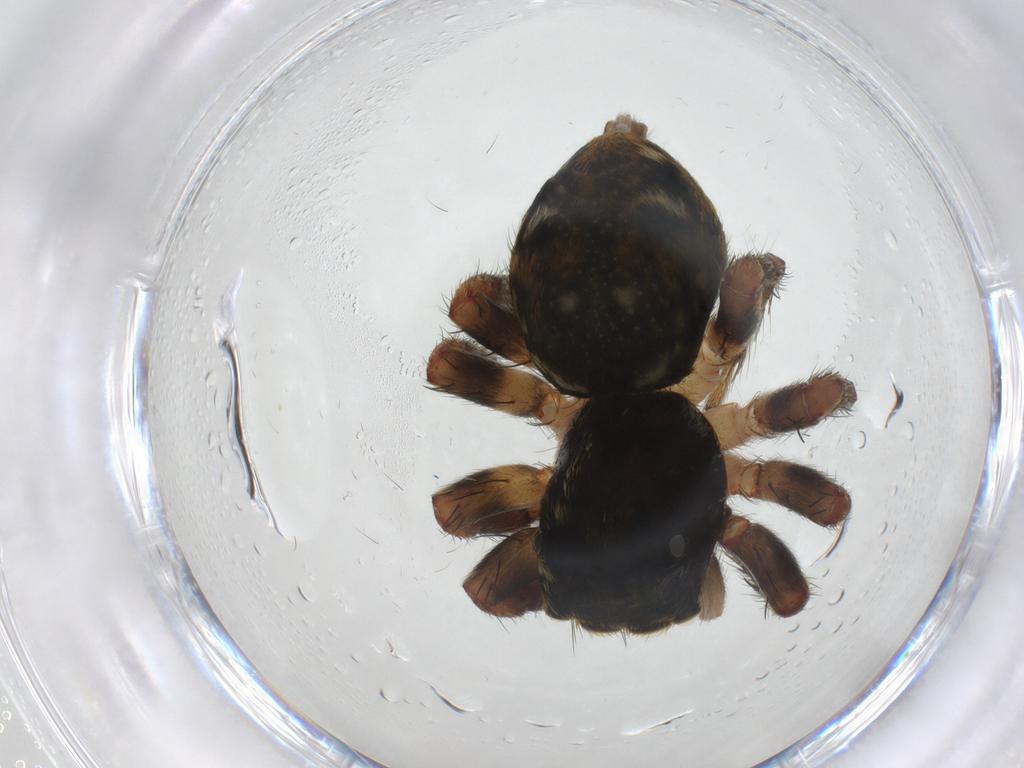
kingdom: Animalia
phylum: Arthropoda
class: Arachnida
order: Araneae
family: Salticidae
